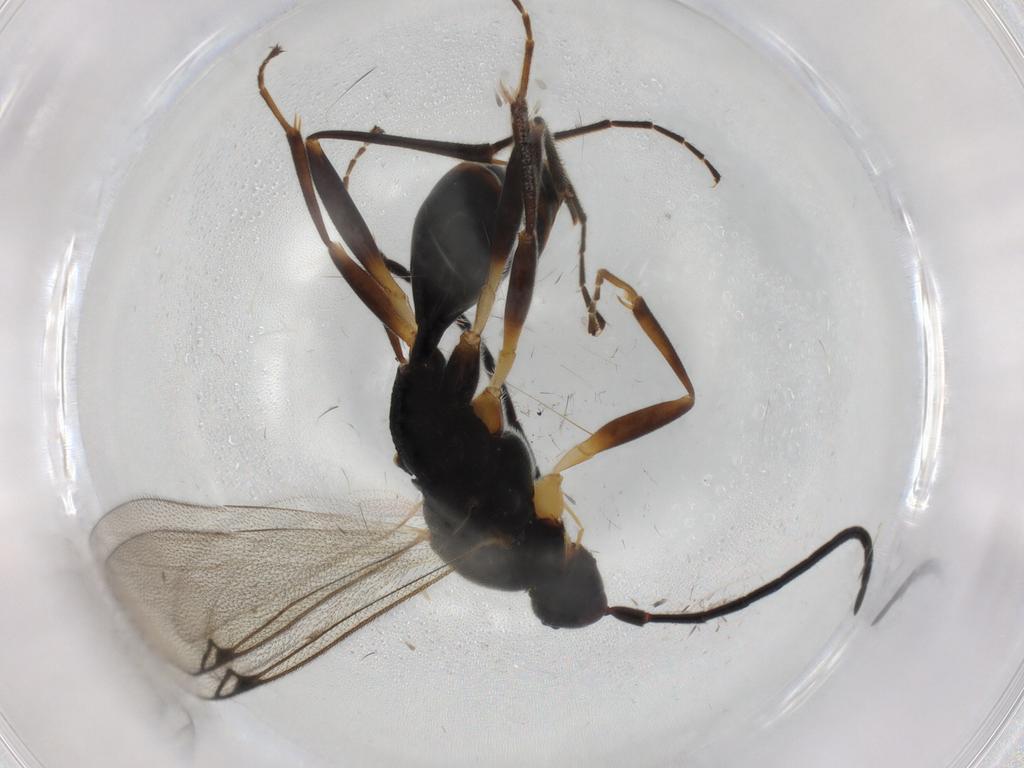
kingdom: Animalia
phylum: Arthropoda
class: Insecta
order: Hymenoptera
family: Proctotrupidae
